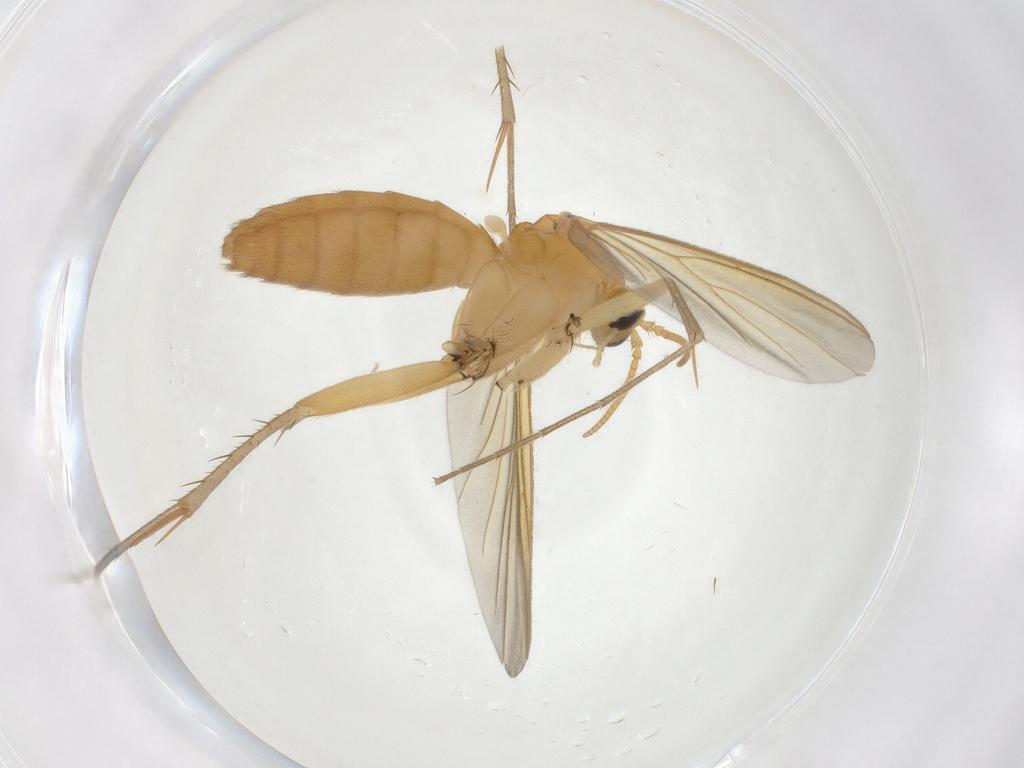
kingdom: Animalia
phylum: Arthropoda
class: Insecta
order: Diptera
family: Mycetophilidae
